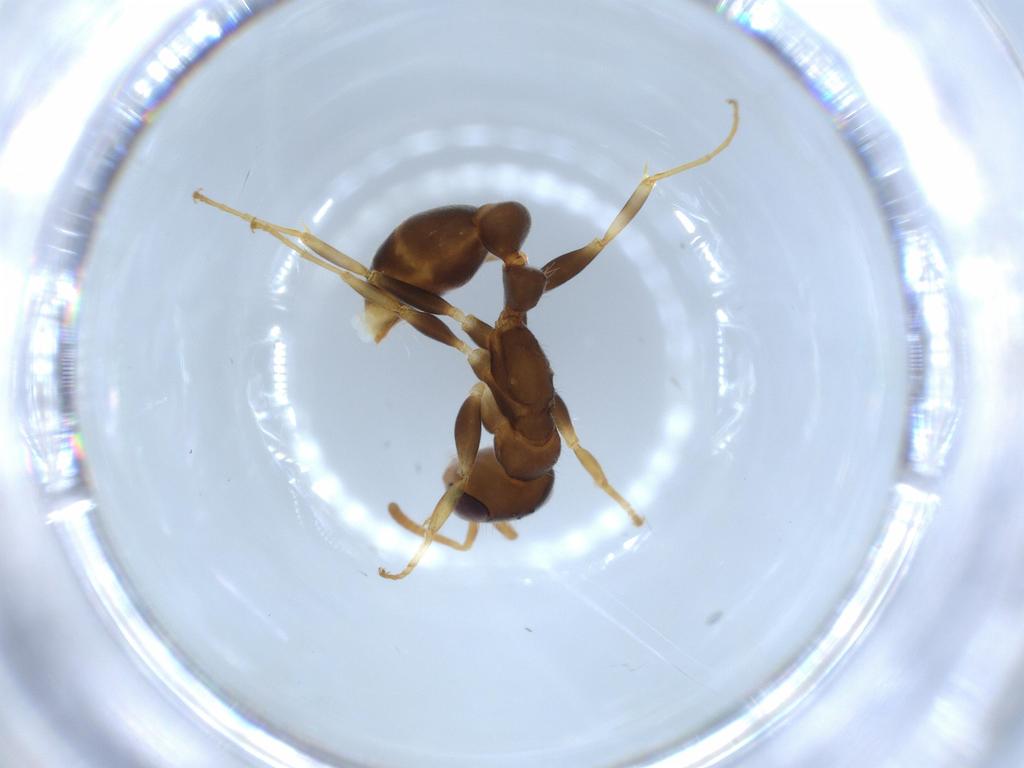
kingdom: Animalia
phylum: Arthropoda
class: Insecta
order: Hymenoptera
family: Formicidae
